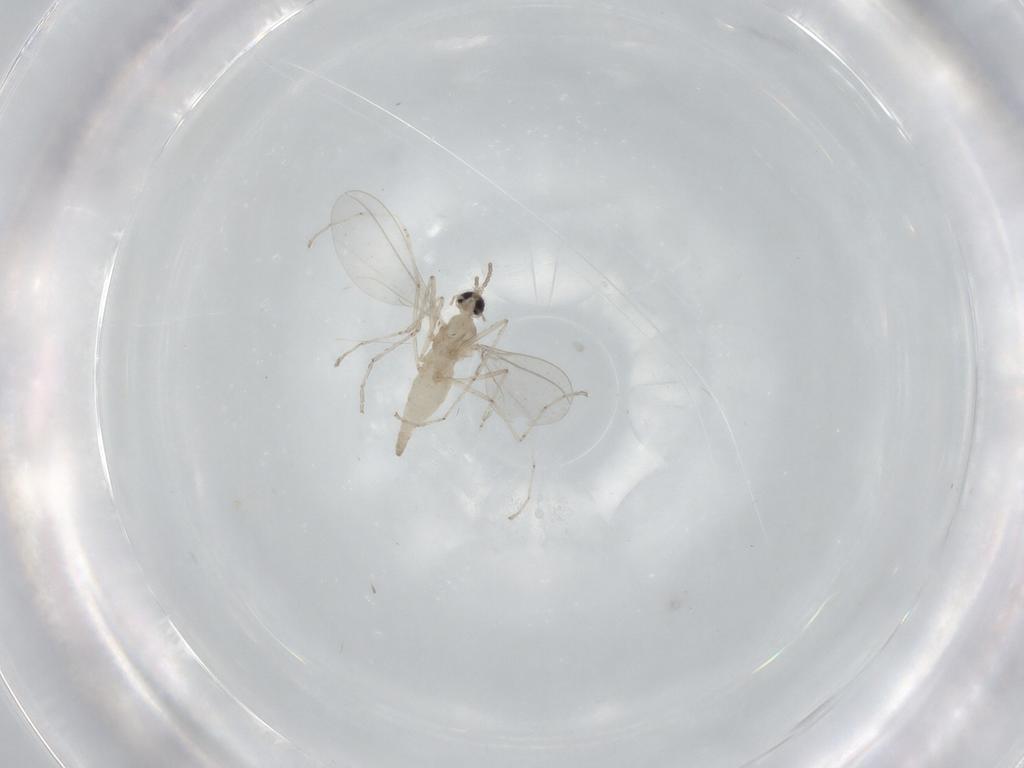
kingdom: Animalia
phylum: Arthropoda
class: Insecta
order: Diptera
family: Cecidomyiidae
